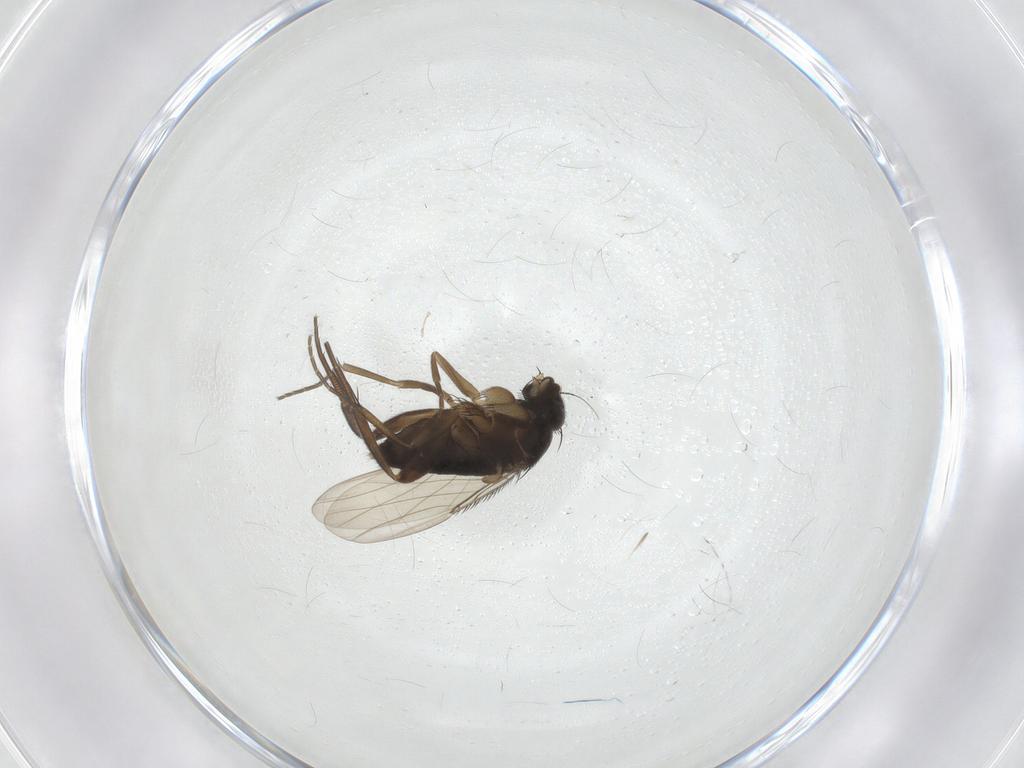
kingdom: Animalia
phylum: Arthropoda
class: Insecta
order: Diptera
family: Phoridae
